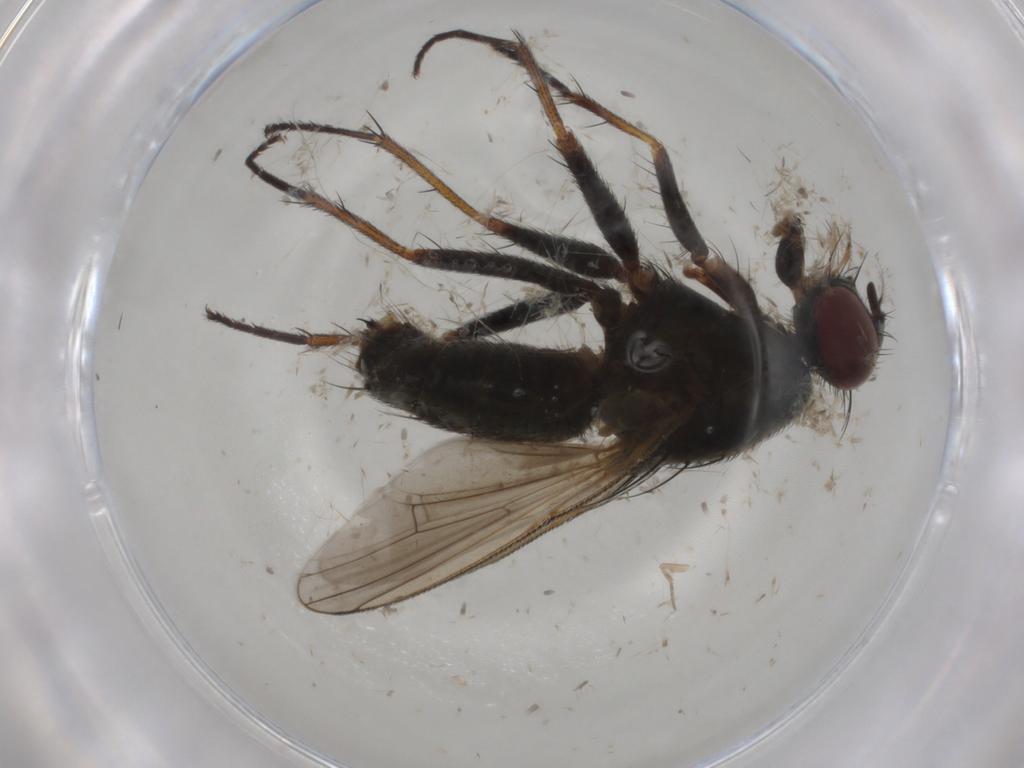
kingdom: Animalia
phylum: Arthropoda
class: Insecta
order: Diptera
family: Muscidae
